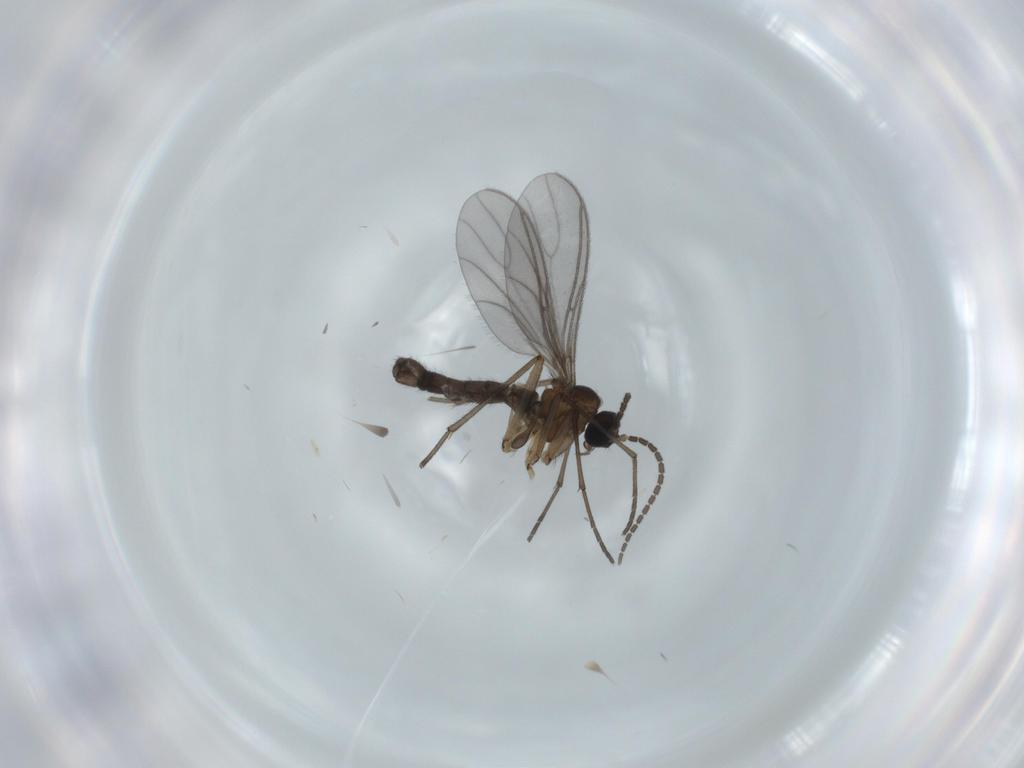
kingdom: Animalia
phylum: Arthropoda
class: Insecta
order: Diptera
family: Sciaridae
